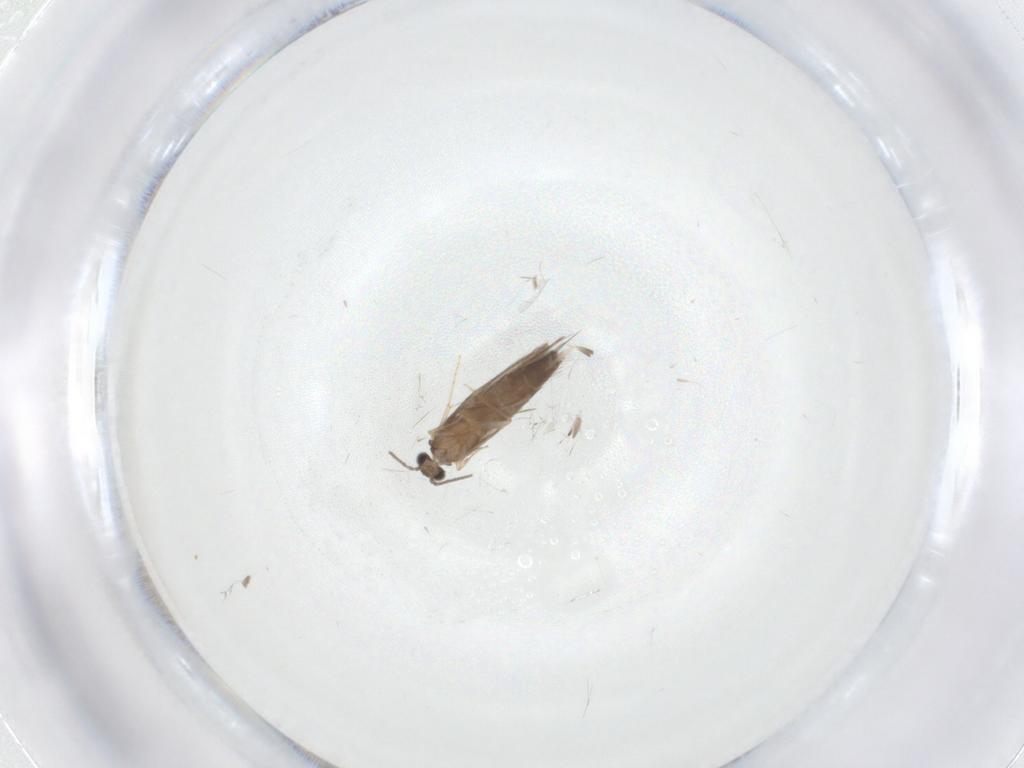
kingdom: Animalia
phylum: Arthropoda
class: Insecta
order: Trichoptera
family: Hydroptilidae
